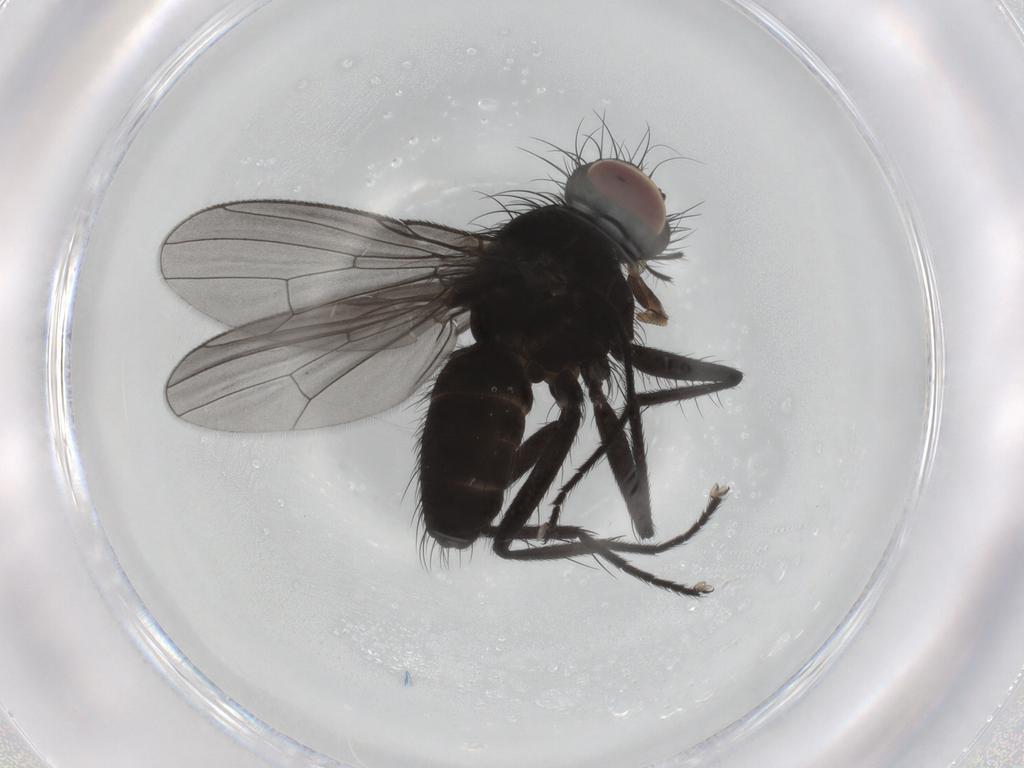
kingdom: Animalia
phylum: Arthropoda
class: Insecta
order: Diptera
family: Muscidae
